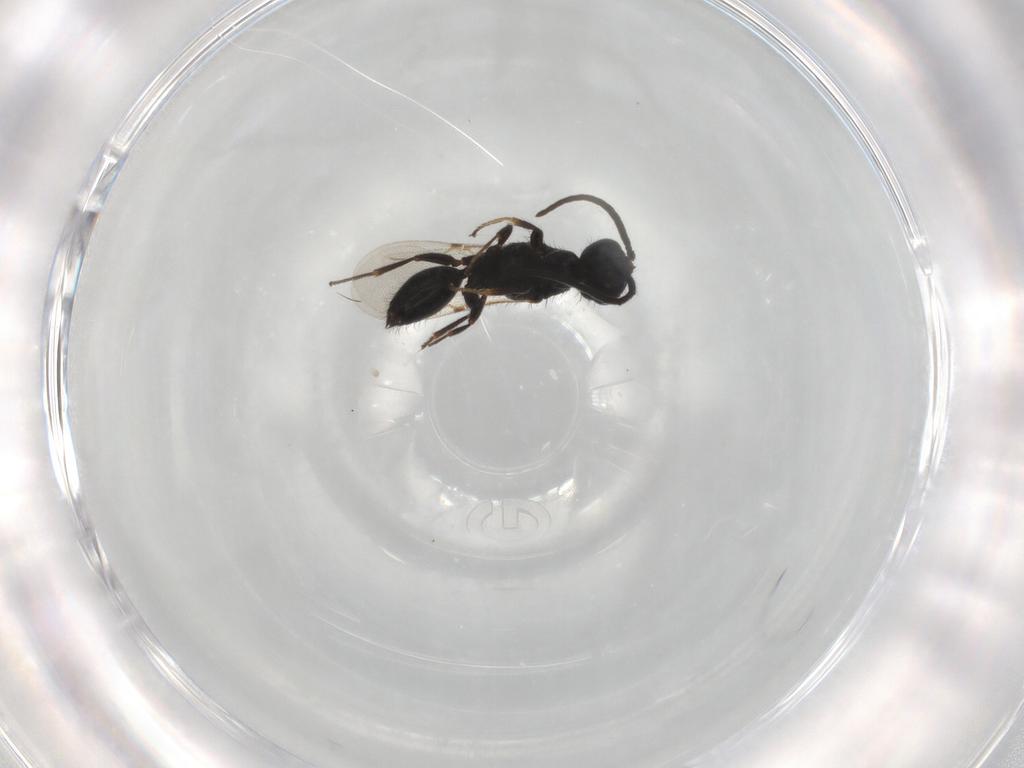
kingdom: Animalia
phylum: Arthropoda
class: Insecta
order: Hymenoptera
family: Bethylidae
